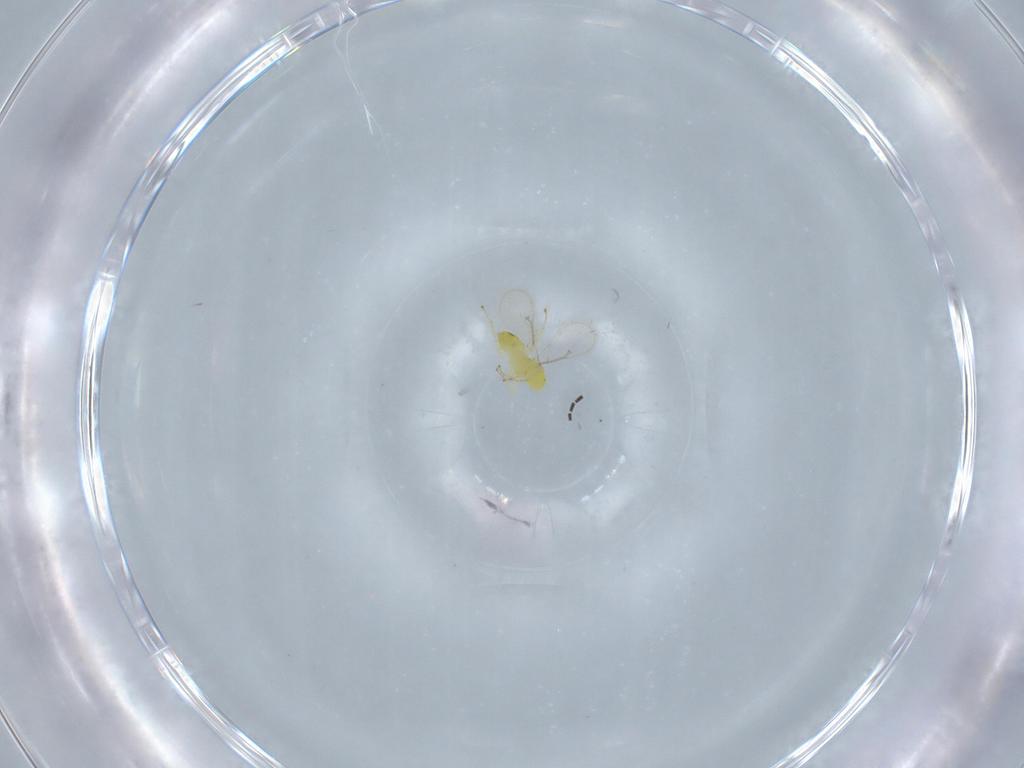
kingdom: Animalia
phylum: Arthropoda
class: Insecta
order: Hymenoptera
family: Eulophidae
